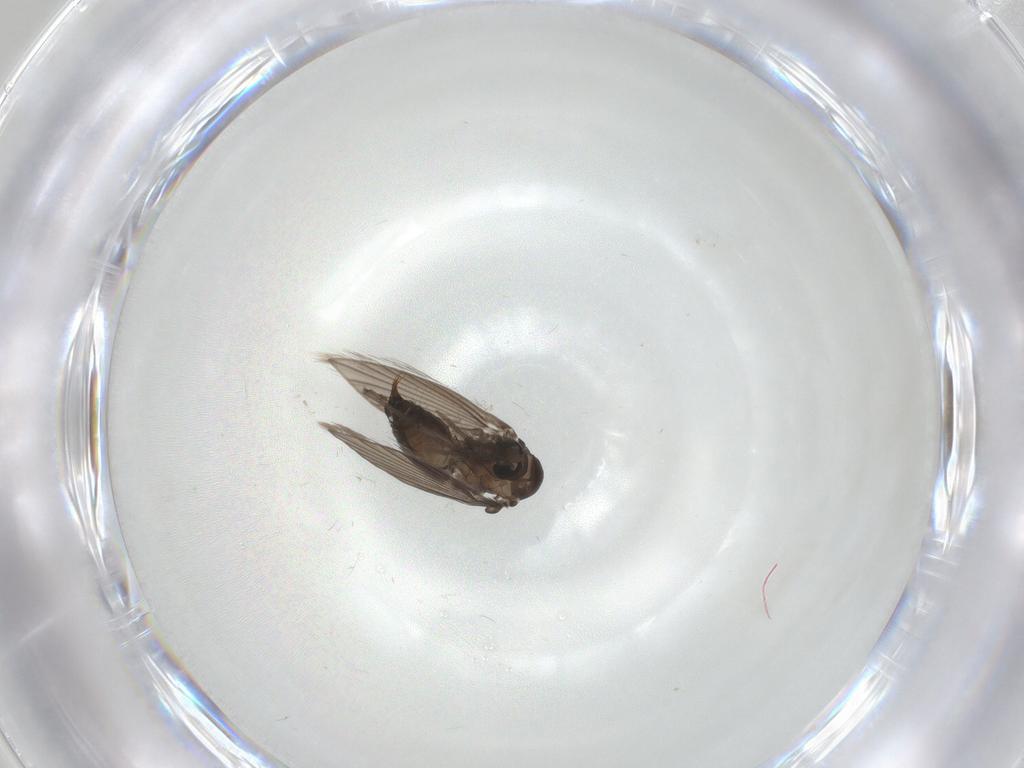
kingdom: Animalia
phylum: Arthropoda
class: Insecta
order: Diptera
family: Psychodidae
